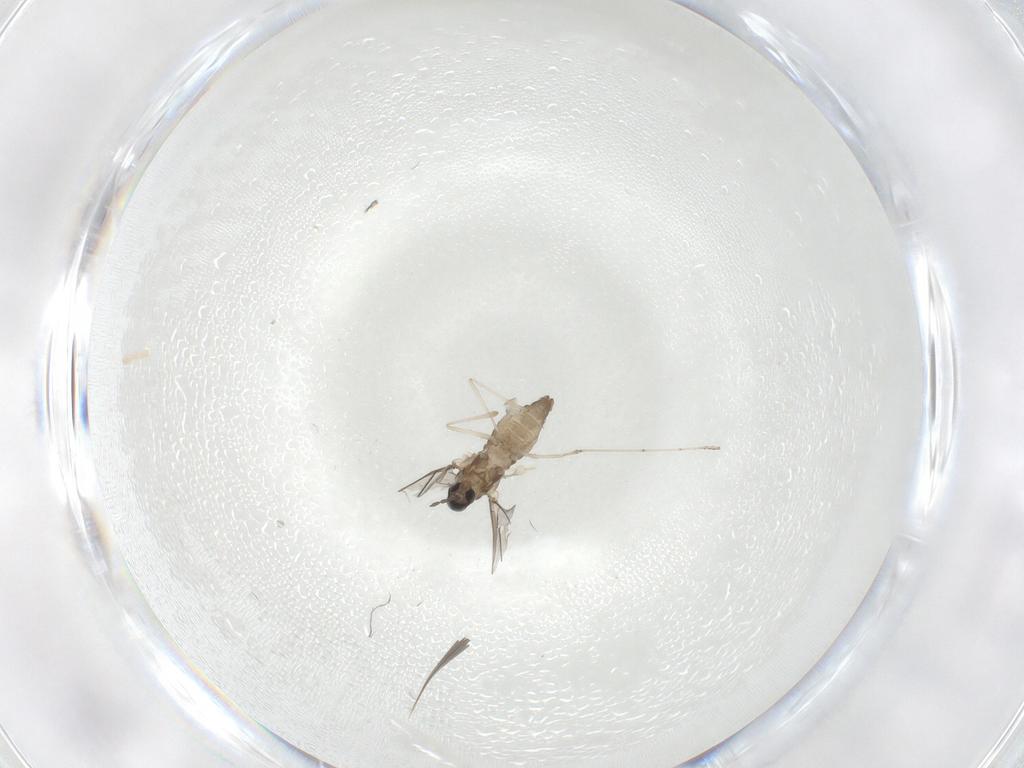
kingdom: Animalia
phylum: Arthropoda
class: Insecta
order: Diptera
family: Cecidomyiidae
